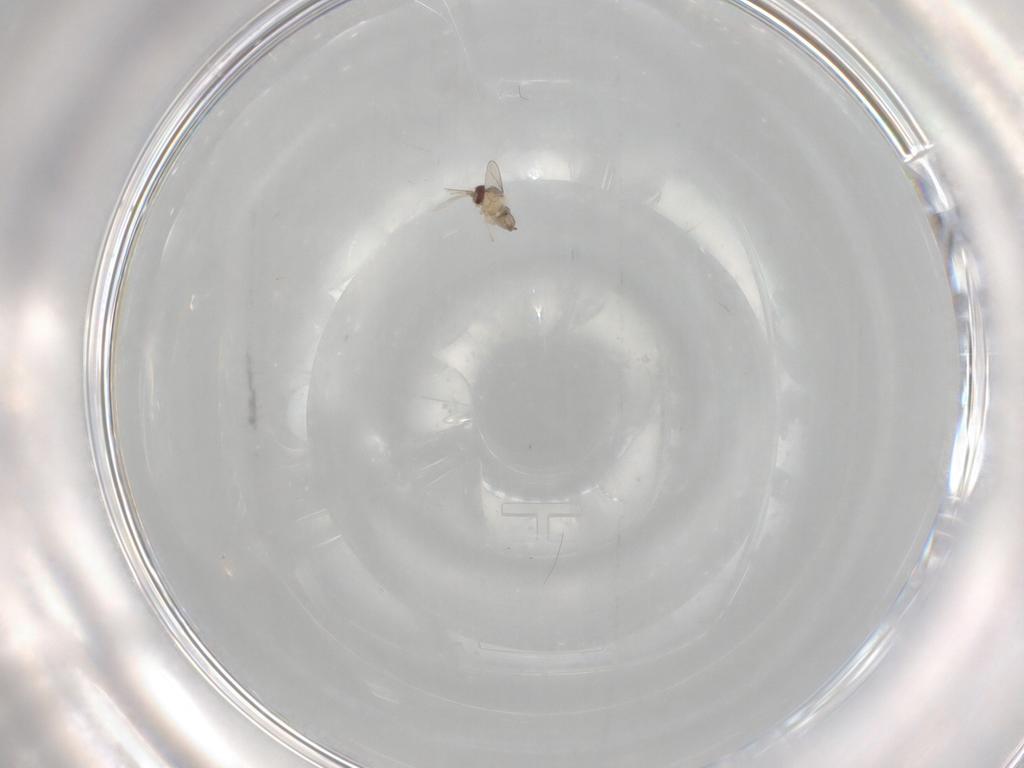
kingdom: Animalia
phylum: Arthropoda
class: Insecta
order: Diptera
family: Cecidomyiidae
